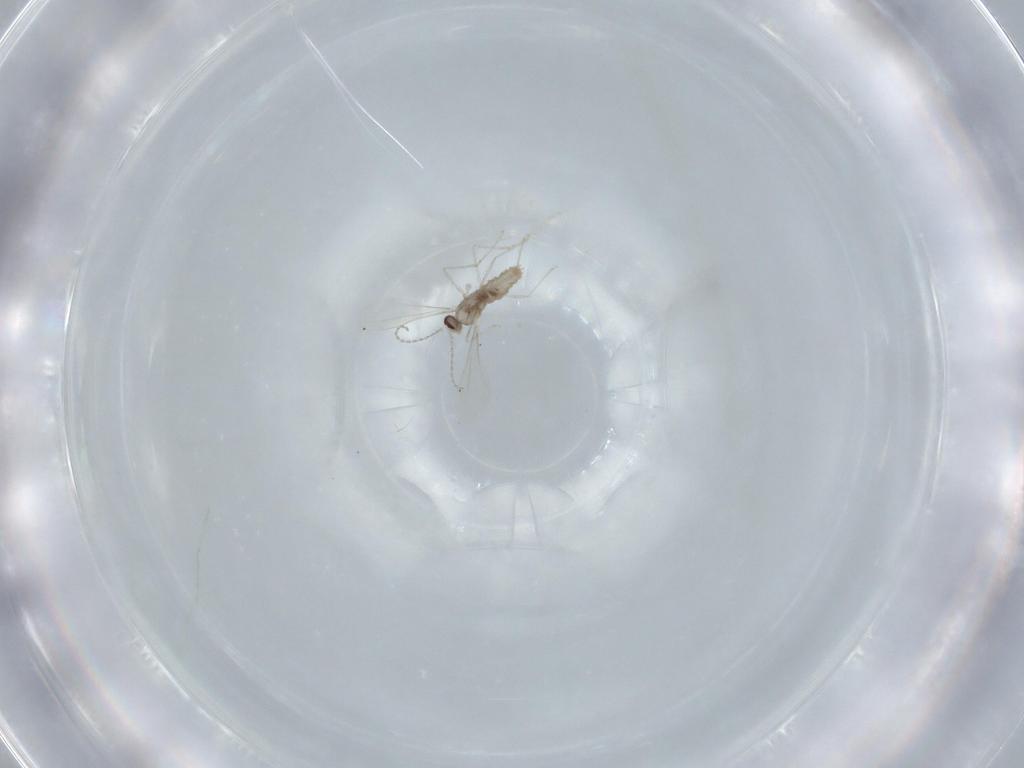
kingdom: Animalia
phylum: Arthropoda
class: Insecta
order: Diptera
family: Cecidomyiidae
